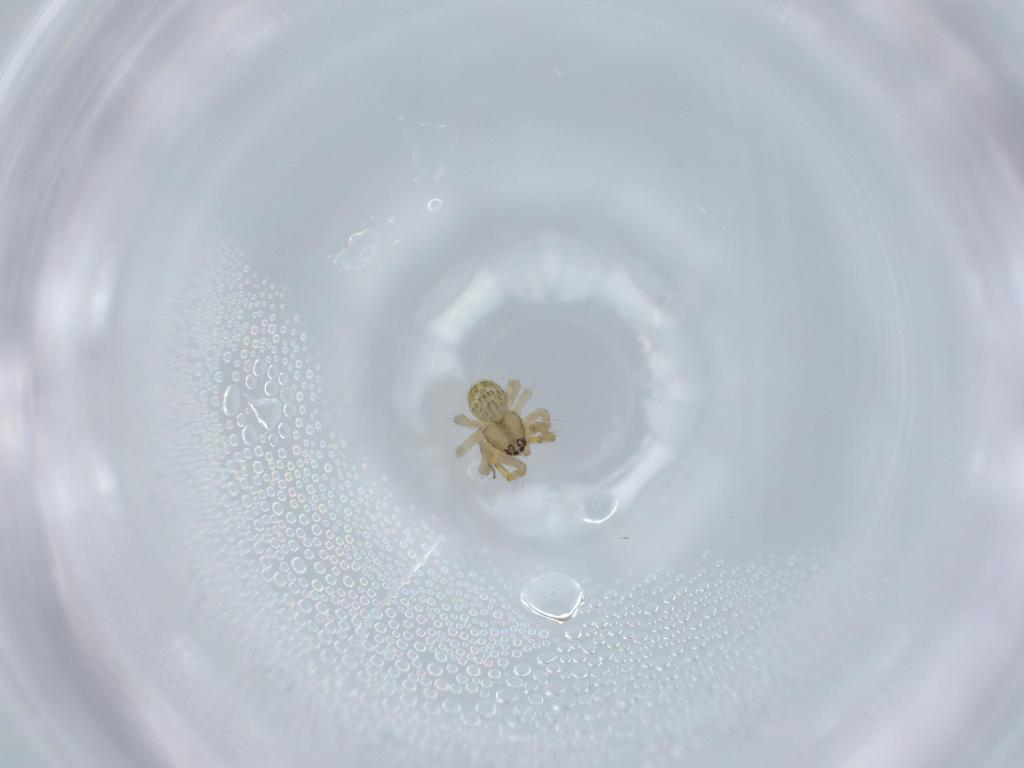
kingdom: Animalia
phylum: Arthropoda
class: Arachnida
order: Araneae
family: Theridiidae
